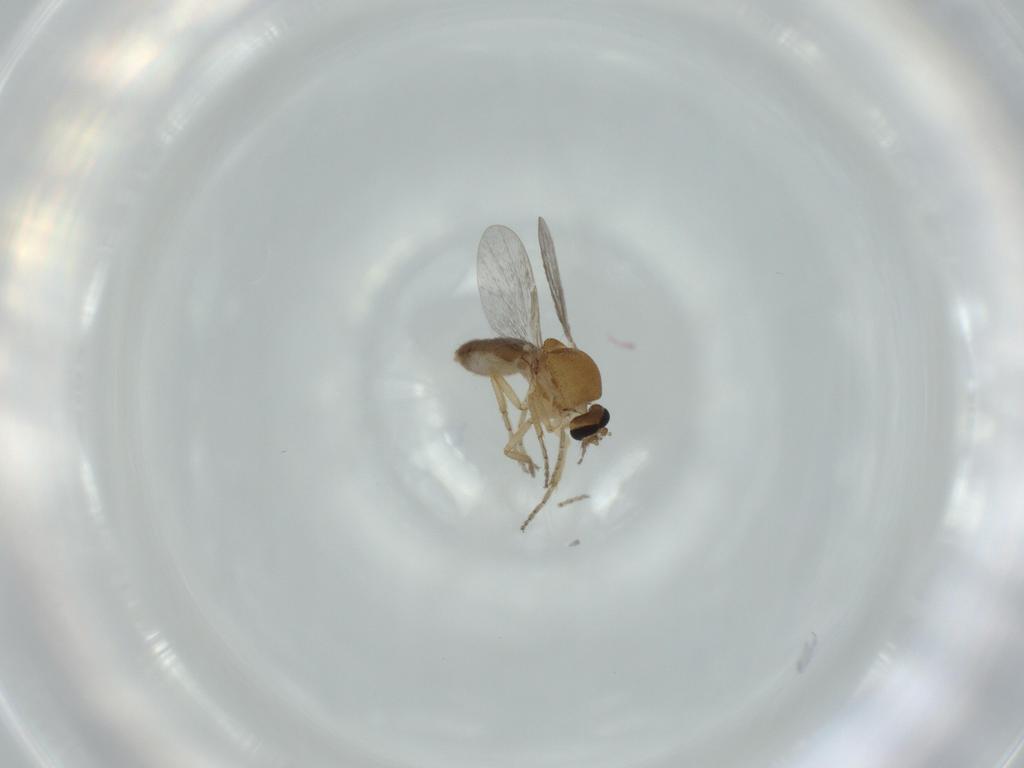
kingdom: Animalia
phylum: Arthropoda
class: Insecta
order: Diptera
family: Ceratopogonidae
